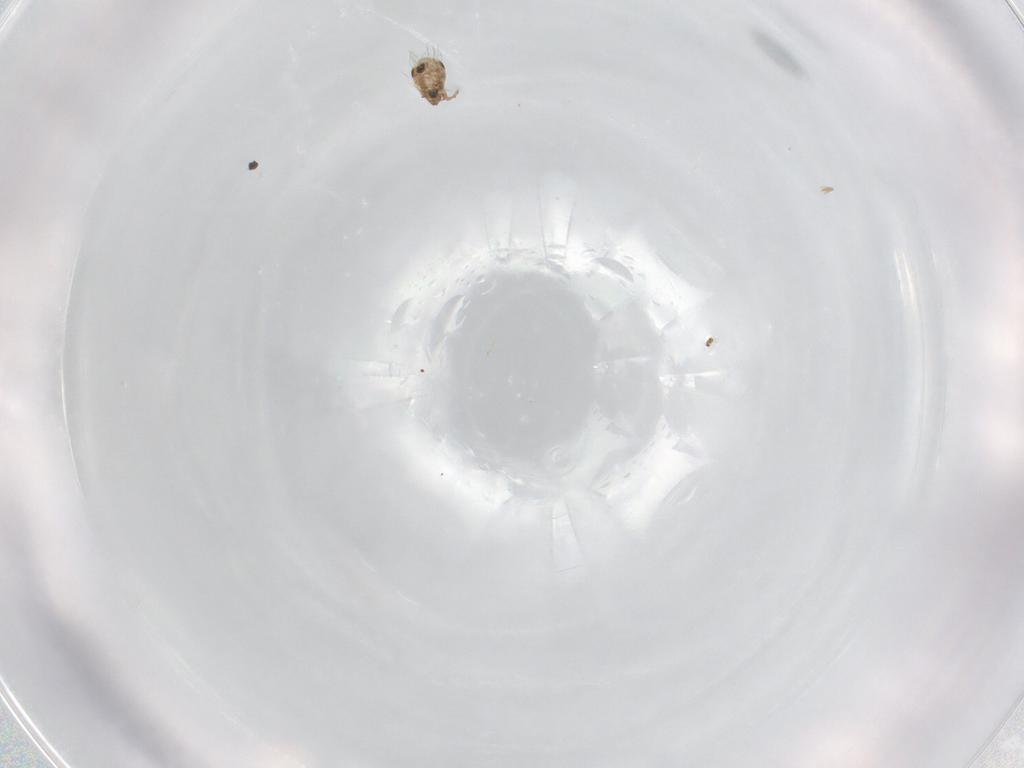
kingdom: Animalia
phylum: Arthropoda
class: Arachnida
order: Sarcoptiformes
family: Humerobatidae
